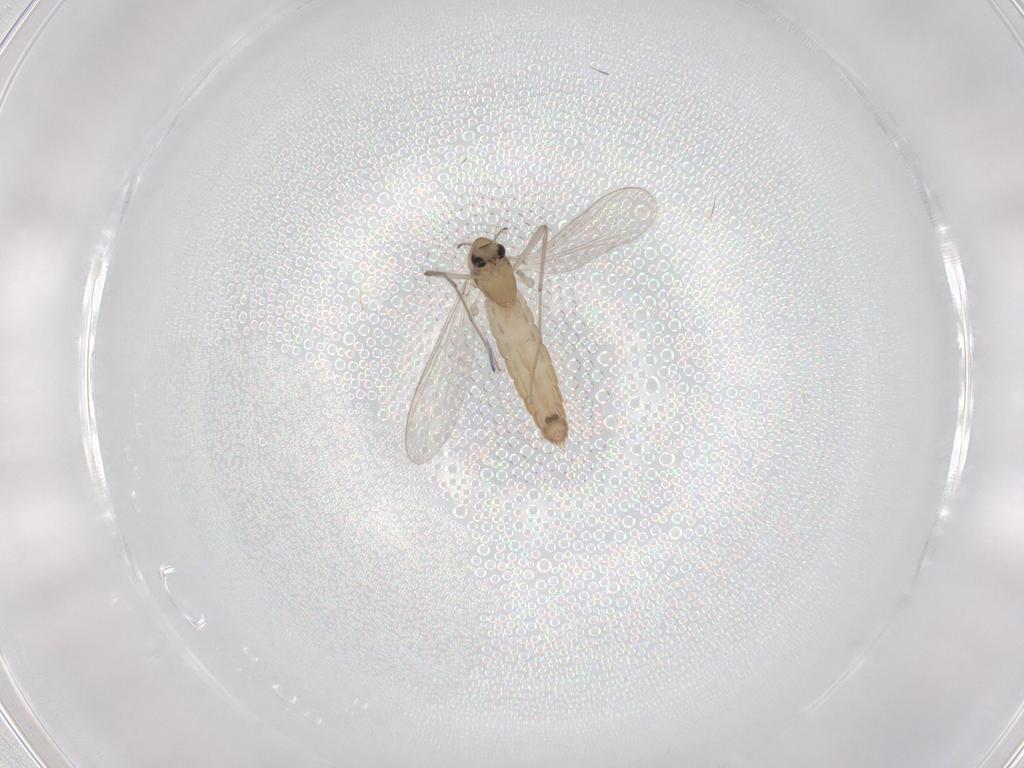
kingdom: Animalia
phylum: Arthropoda
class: Insecta
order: Diptera
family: Chironomidae
